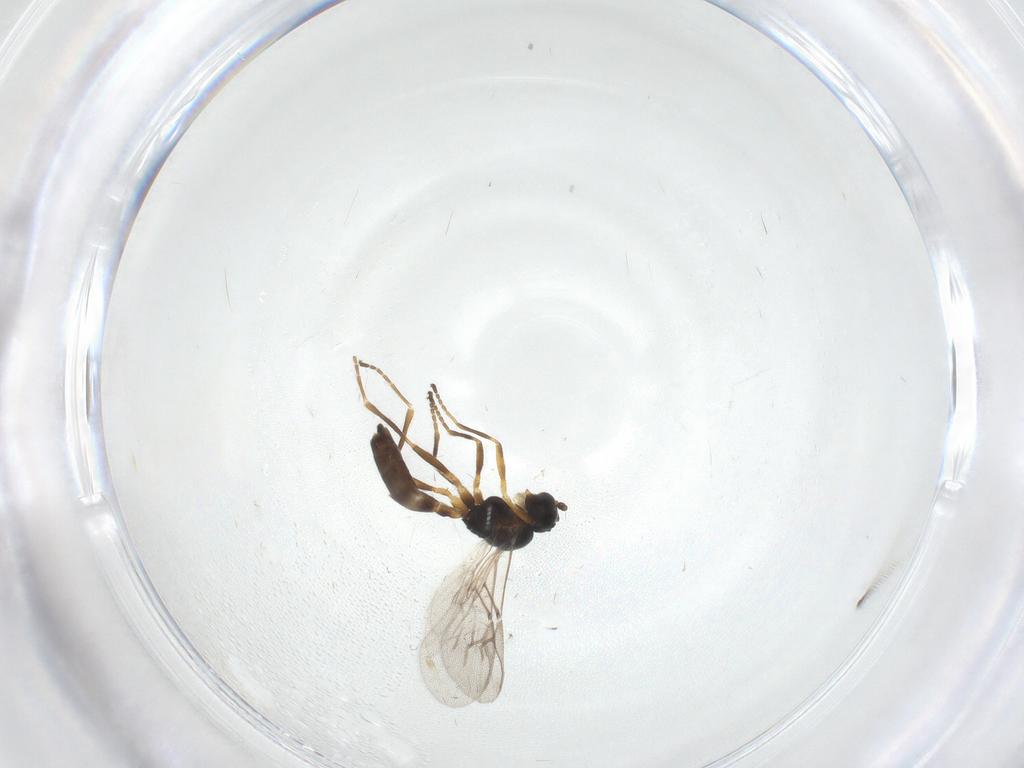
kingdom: Animalia
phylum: Arthropoda
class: Insecta
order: Hymenoptera
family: Braconidae
